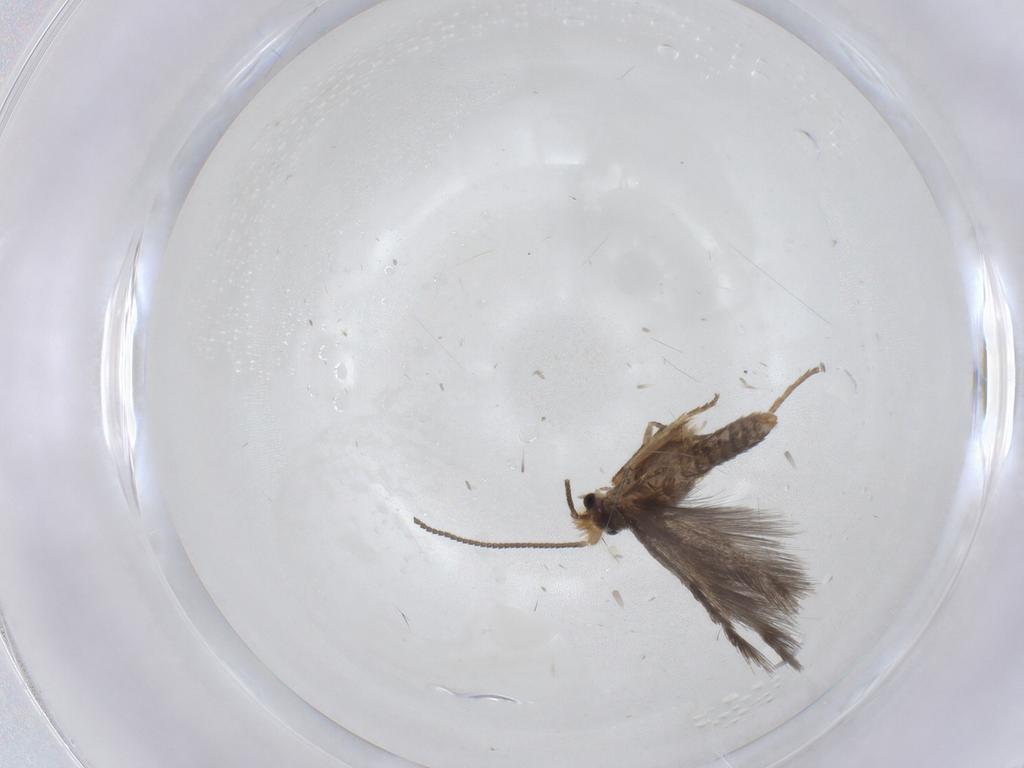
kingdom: Animalia
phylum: Arthropoda
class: Insecta
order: Lepidoptera
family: Nepticulidae
